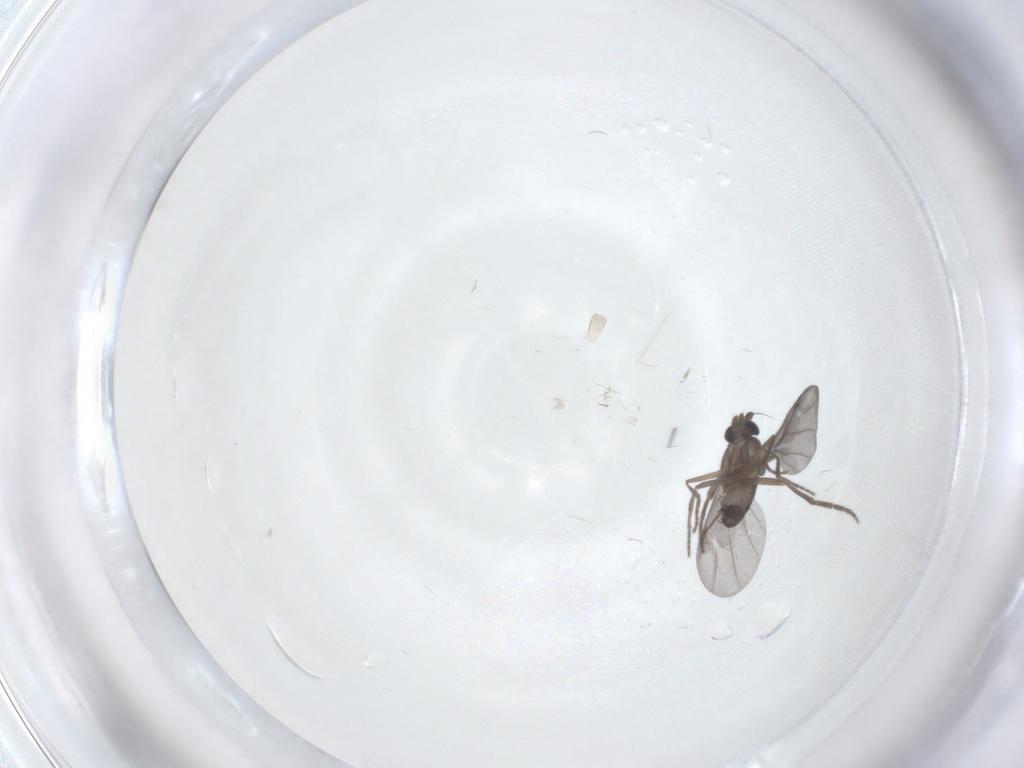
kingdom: Animalia
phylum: Arthropoda
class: Insecta
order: Diptera
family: Phoridae
